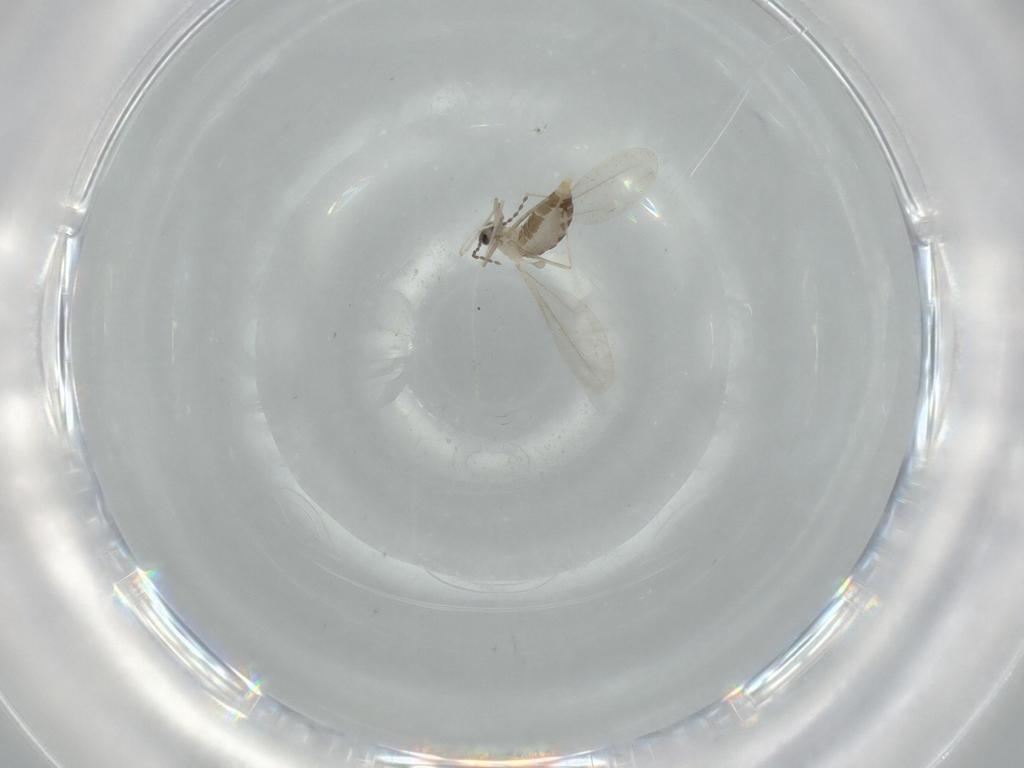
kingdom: Animalia
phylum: Arthropoda
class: Insecta
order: Diptera
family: Cecidomyiidae
